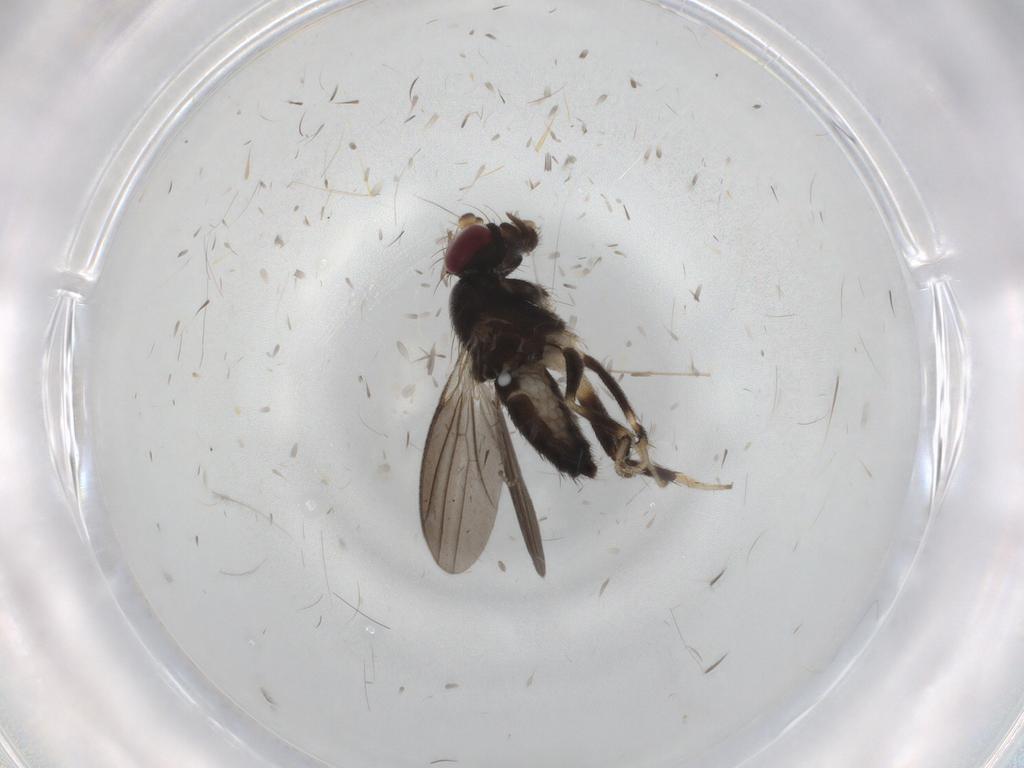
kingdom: Animalia
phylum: Arthropoda
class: Insecta
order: Diptera
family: Clusiidae
